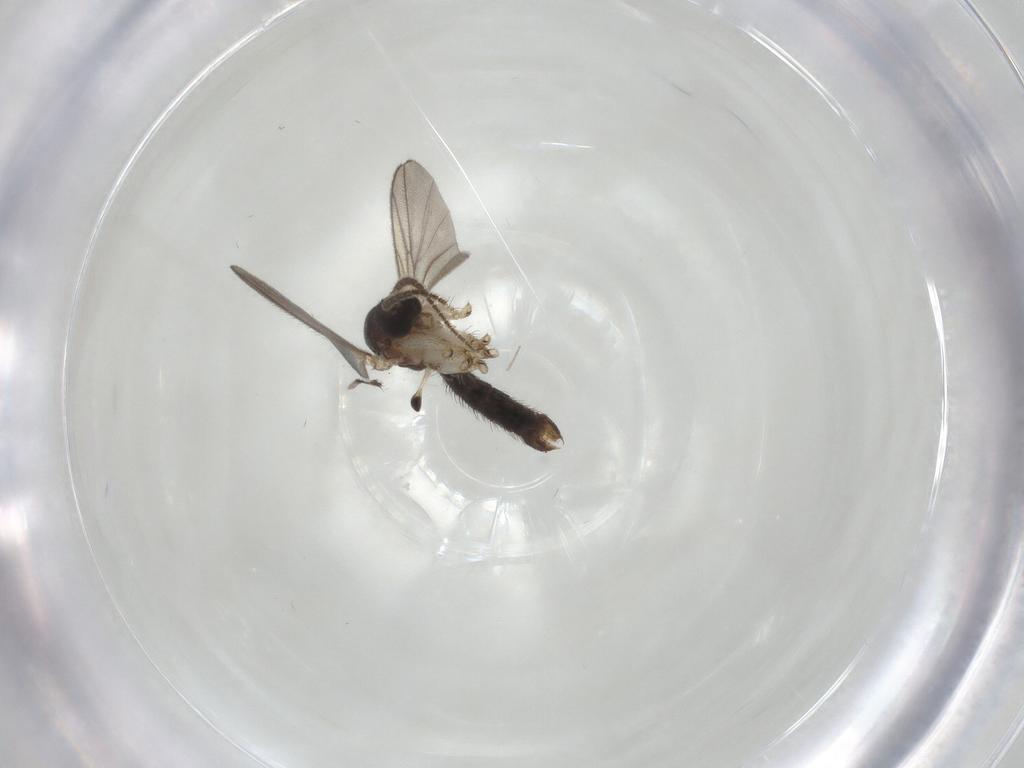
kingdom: Animalia
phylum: Arthropoda
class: Insecta
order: Diptera
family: Mycetophilidae
